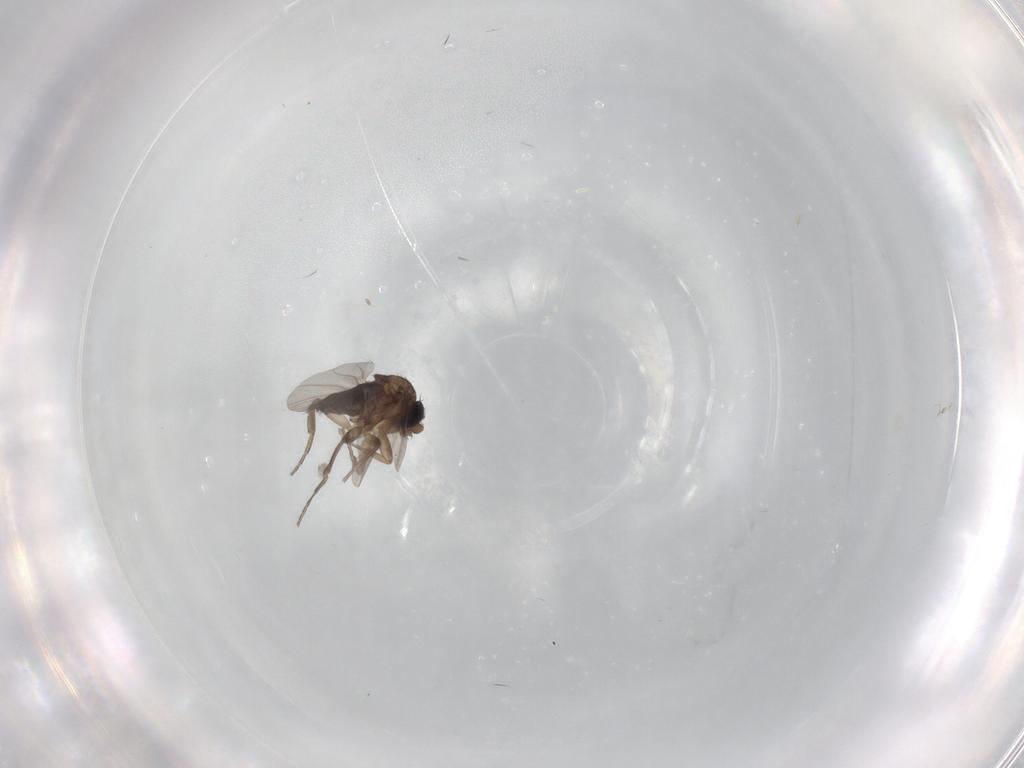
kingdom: Animalia
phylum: Arthropoda
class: Insecta
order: Diptera
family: Phoridae
